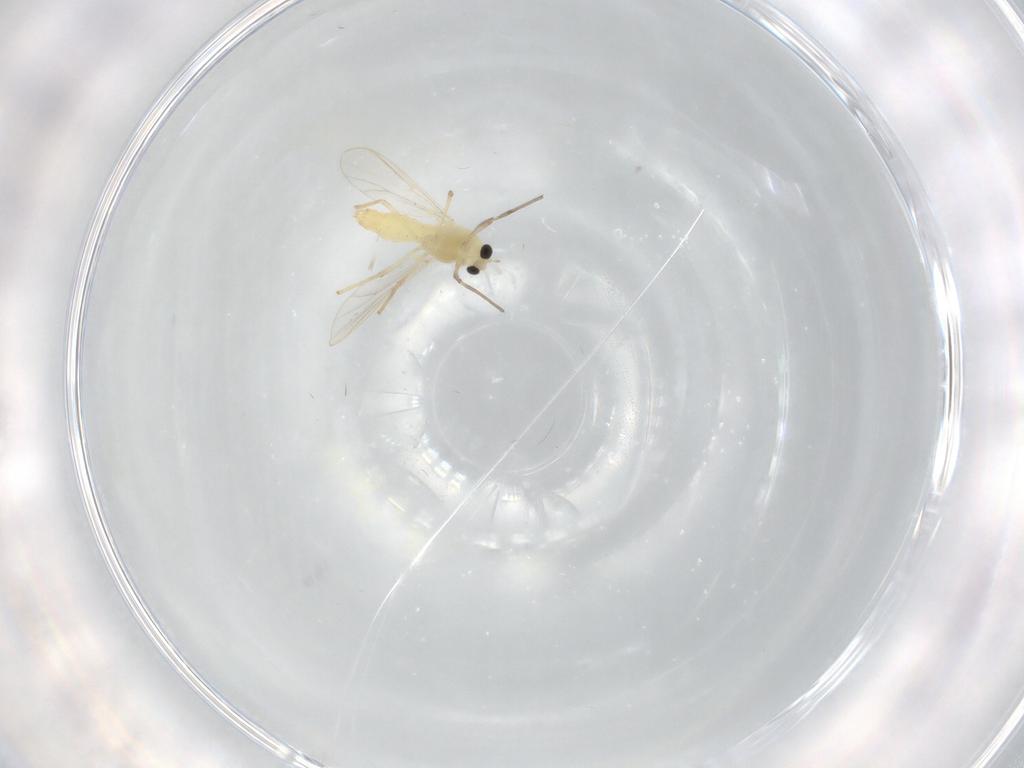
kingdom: Animalia
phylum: Arthropoda
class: Insecta
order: Diptera
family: Chironomidae
